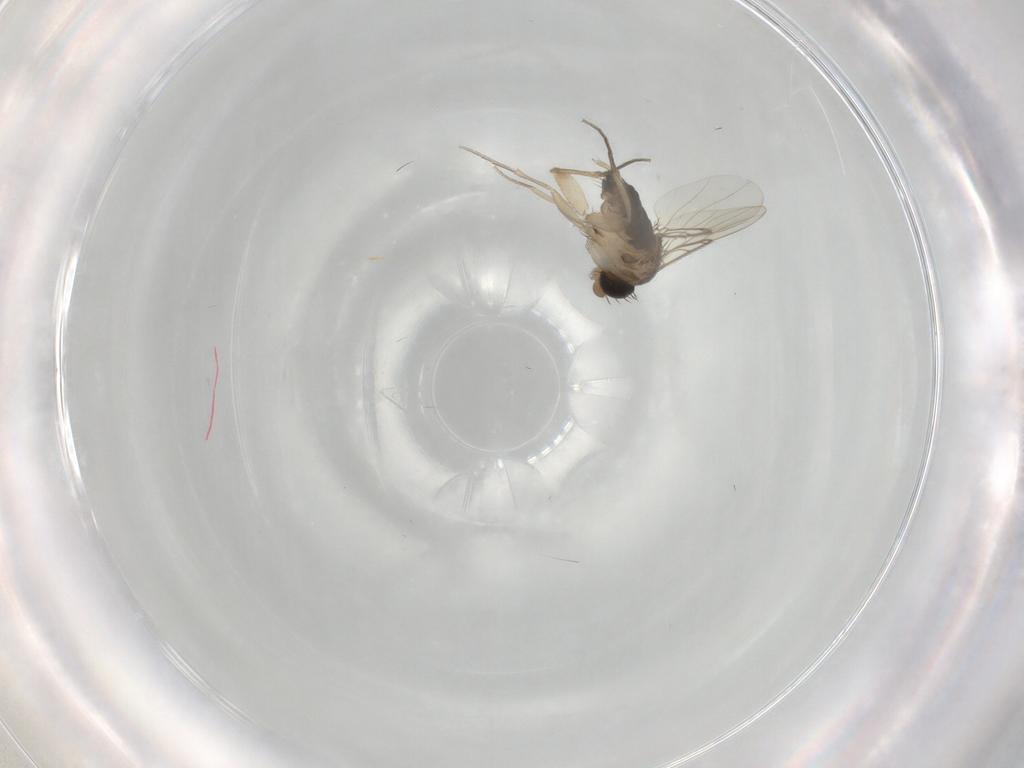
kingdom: Animalia
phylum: Arthropoda
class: Insecta
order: Diptera
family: Phoridae
